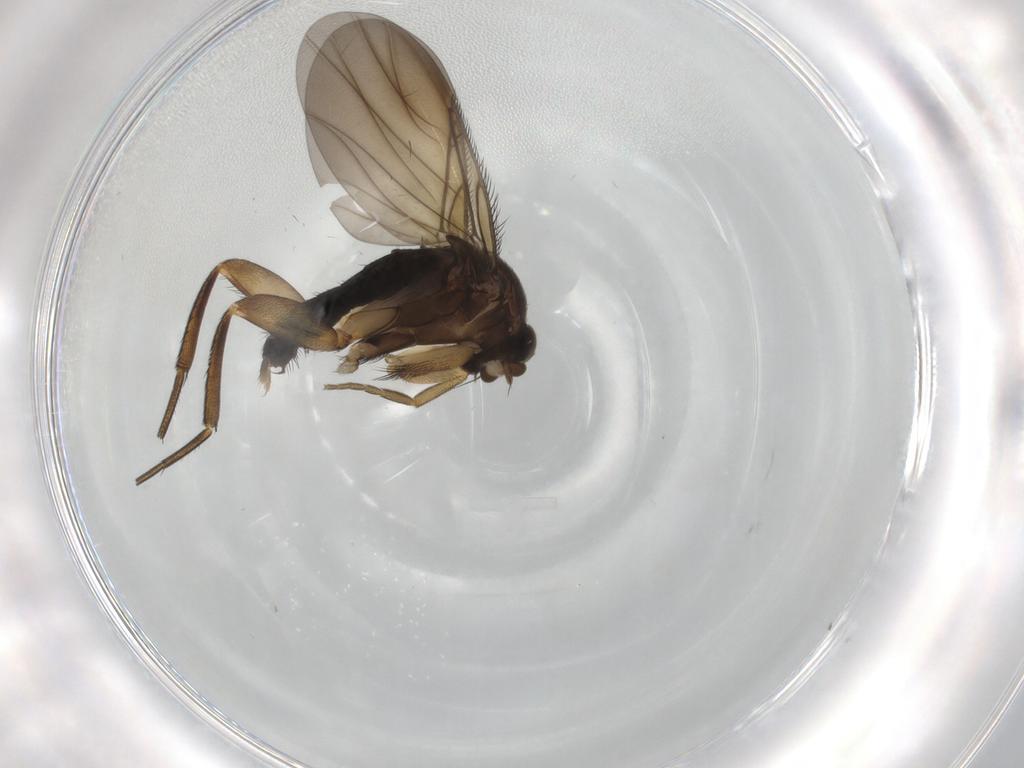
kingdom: Animalia
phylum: Arthropoda
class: Insecta
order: Diptera
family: Phoridae
